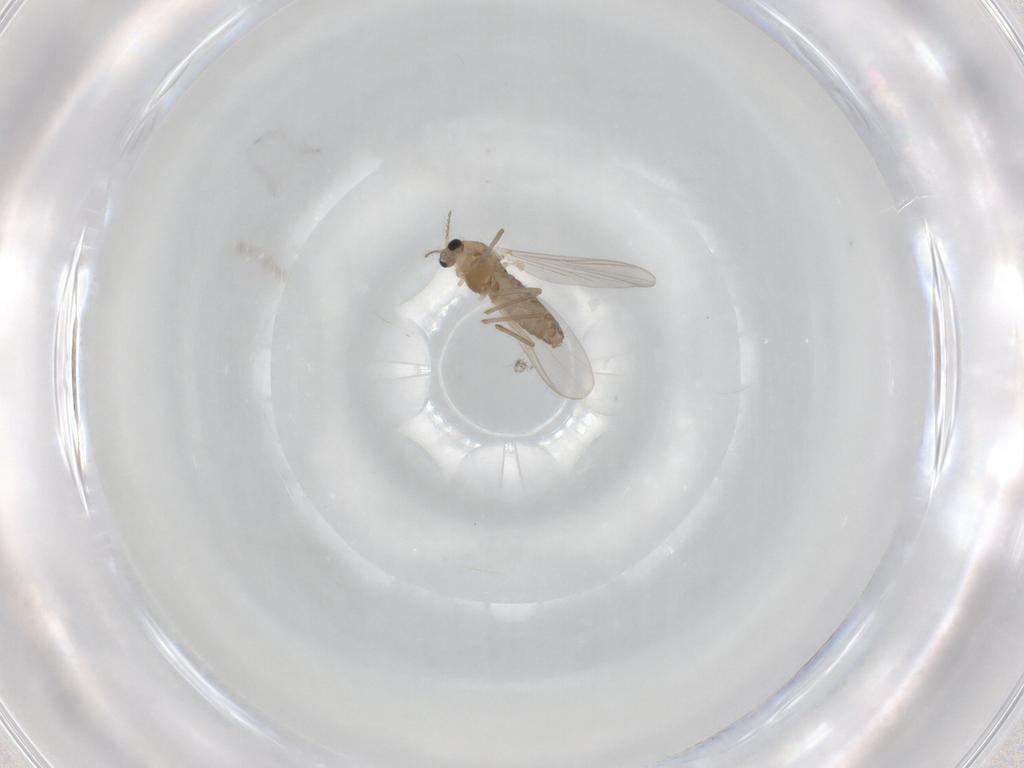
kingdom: Animalia
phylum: Arthropoda
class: Insecta
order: Diptera
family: Chironomidae
